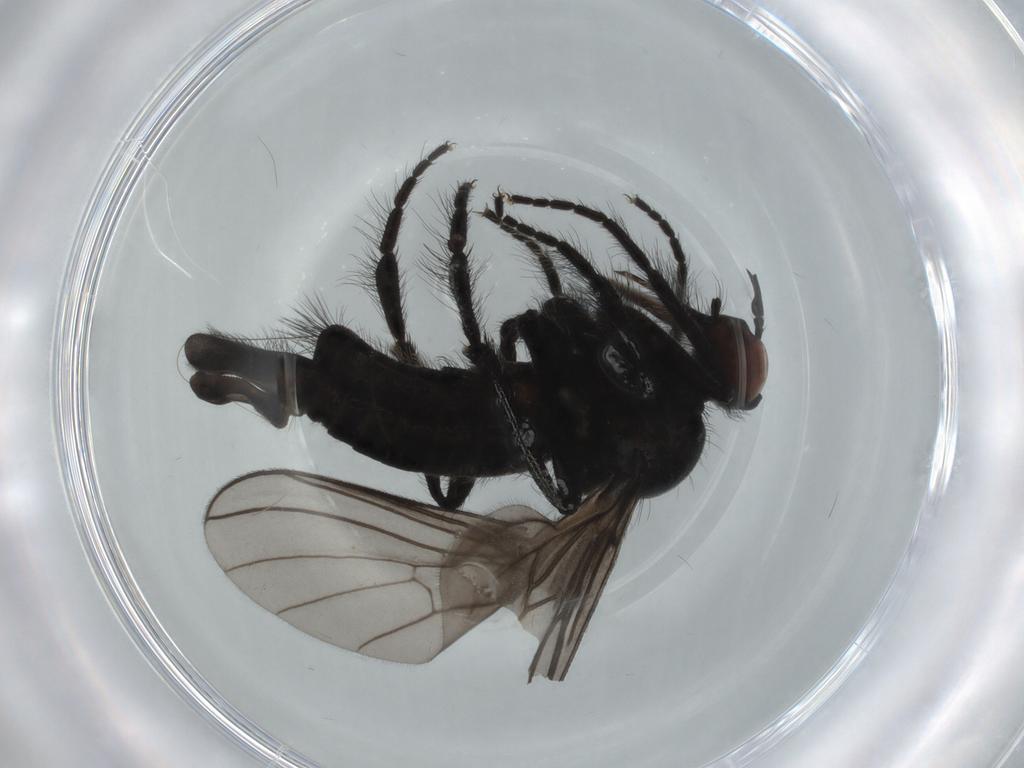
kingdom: Animalia
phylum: Arthropoda
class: Insecta
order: Diptera
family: Empididae
